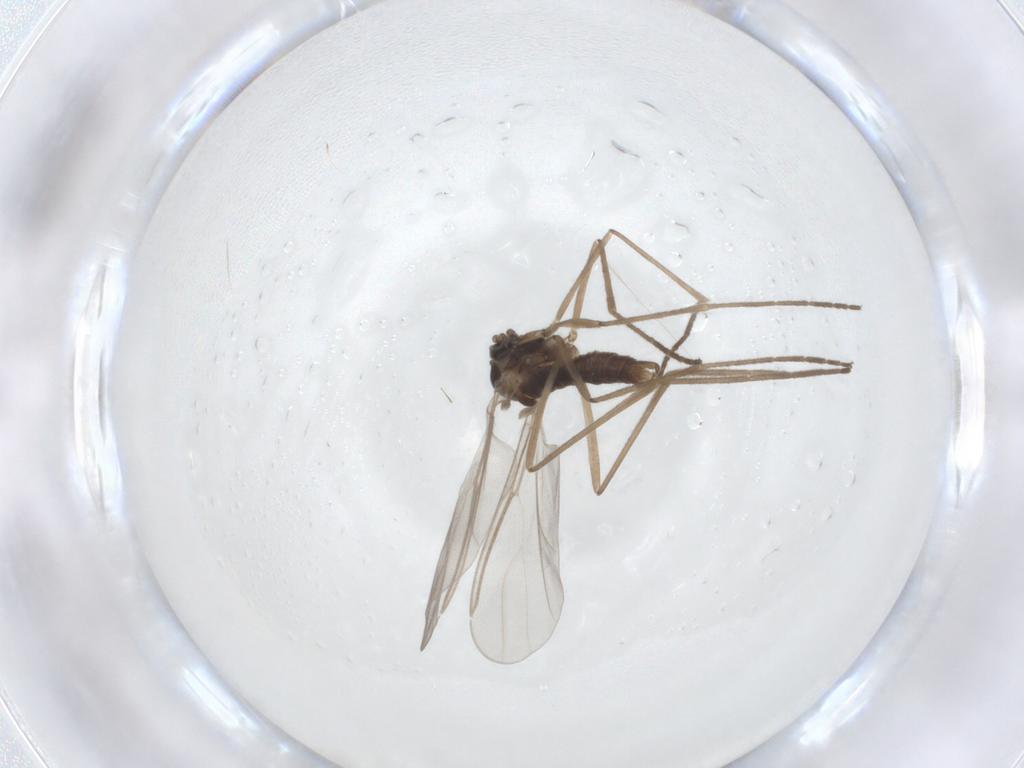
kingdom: Animalia
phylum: Arthropoda
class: Insecta
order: Diptera
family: Cecidomyiidae
